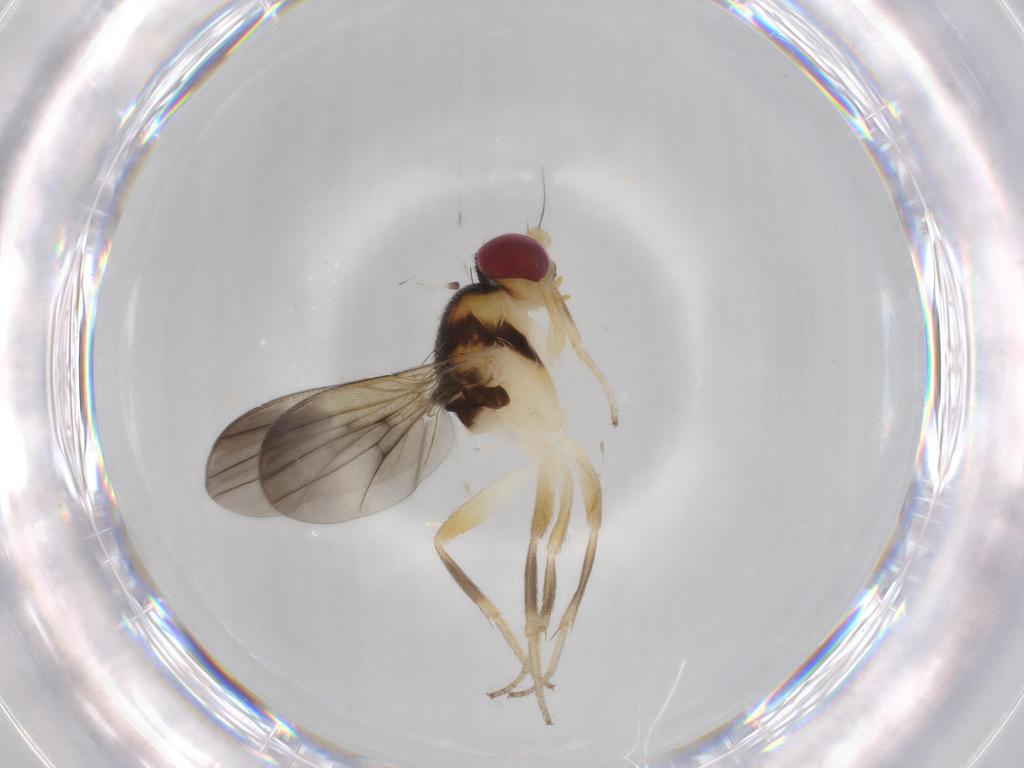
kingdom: Animalia
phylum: Arthropoda
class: Insecta
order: Diptera
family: Clusiidae
